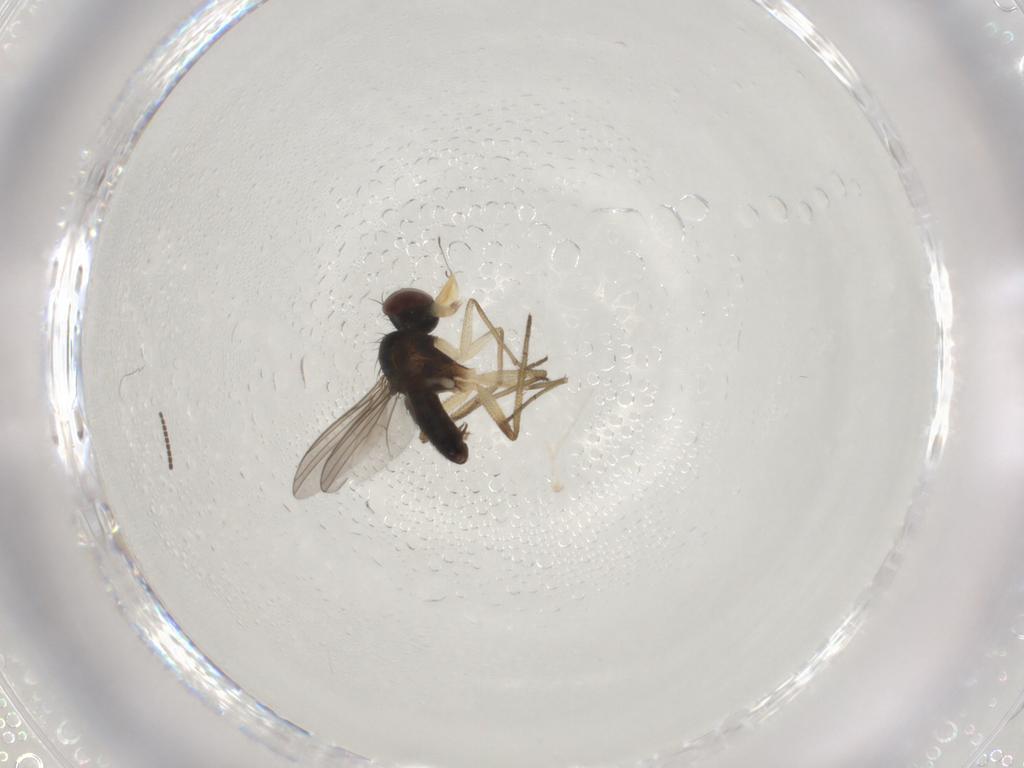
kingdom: Animalia
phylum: Arthropoda
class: Insecta
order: Diptera
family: Dolichopodidae
